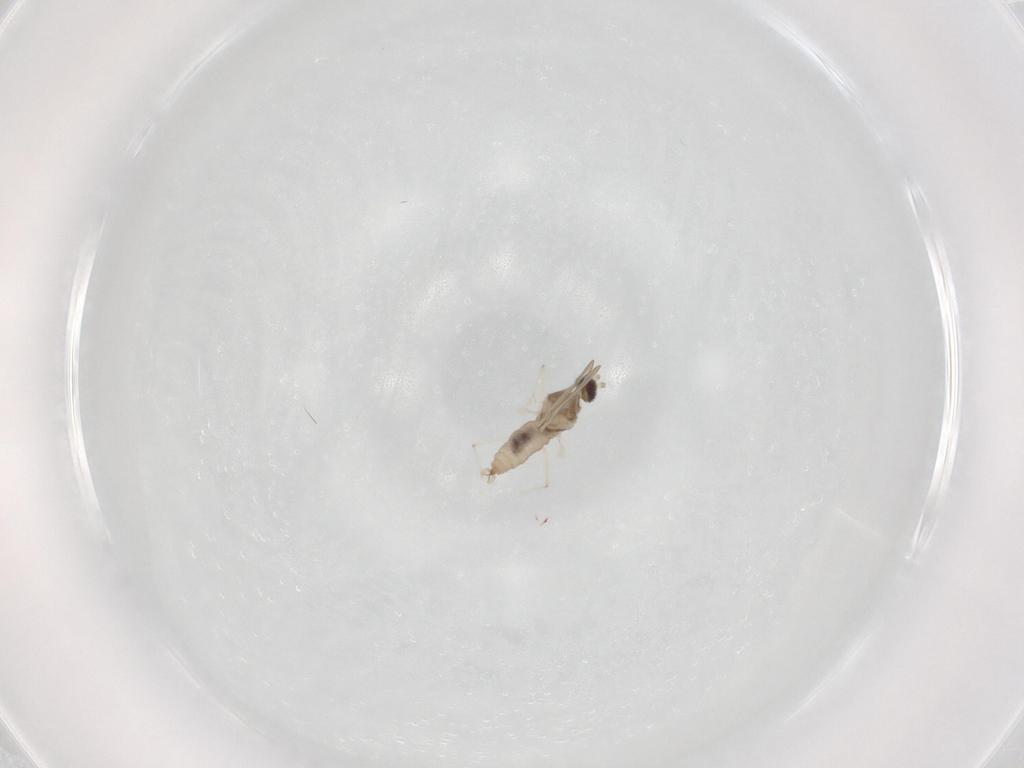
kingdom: Animalia
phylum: Arthropoda
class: Insecta
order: Diptera
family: Cecidomyiidae
